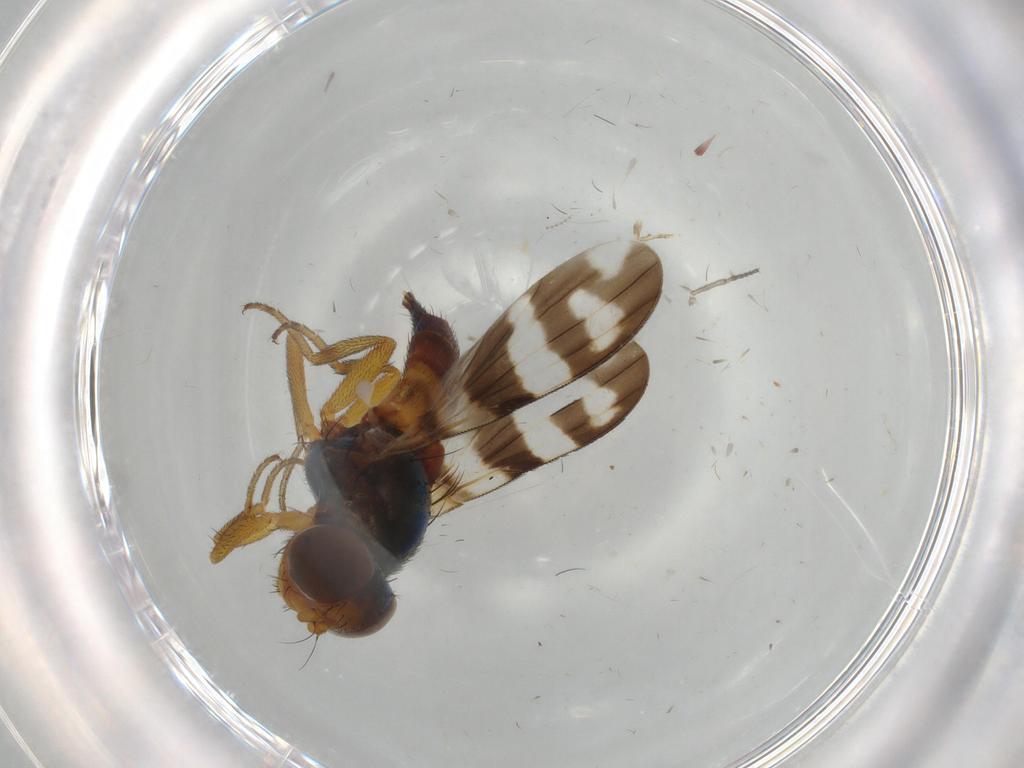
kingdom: Animalia
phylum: Arthropoda
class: Insecta
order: Diptera
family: Ulidiidae
